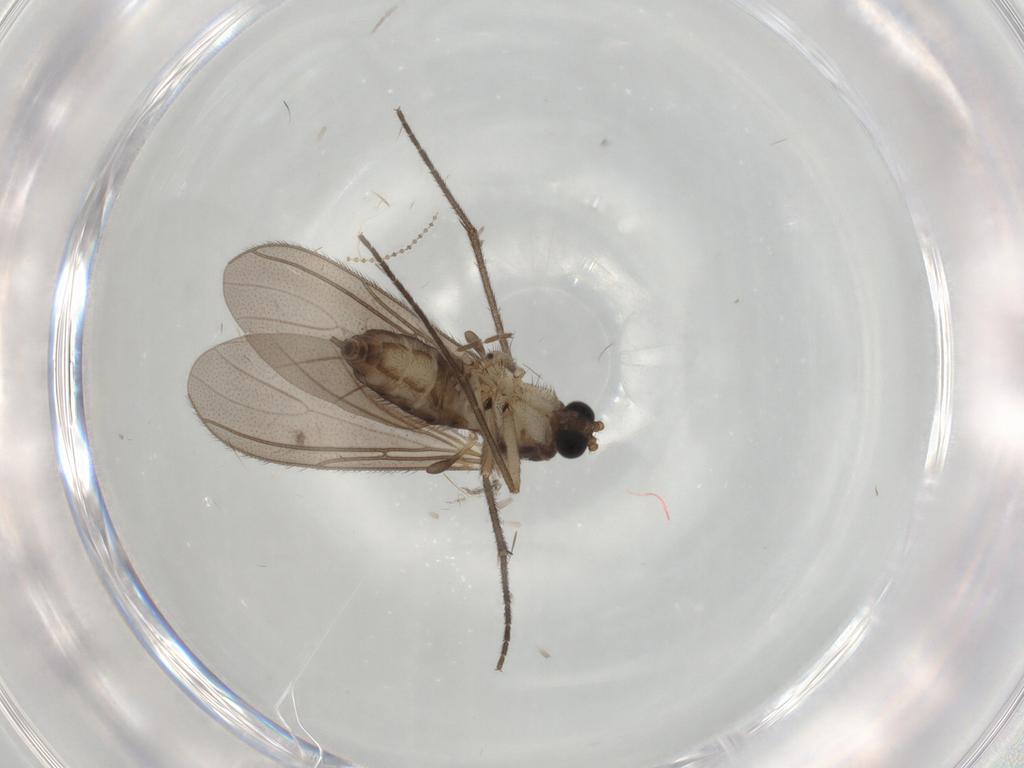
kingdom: Animalia
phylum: Arthropoda
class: Insecta
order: Diptera
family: Sciaridae
